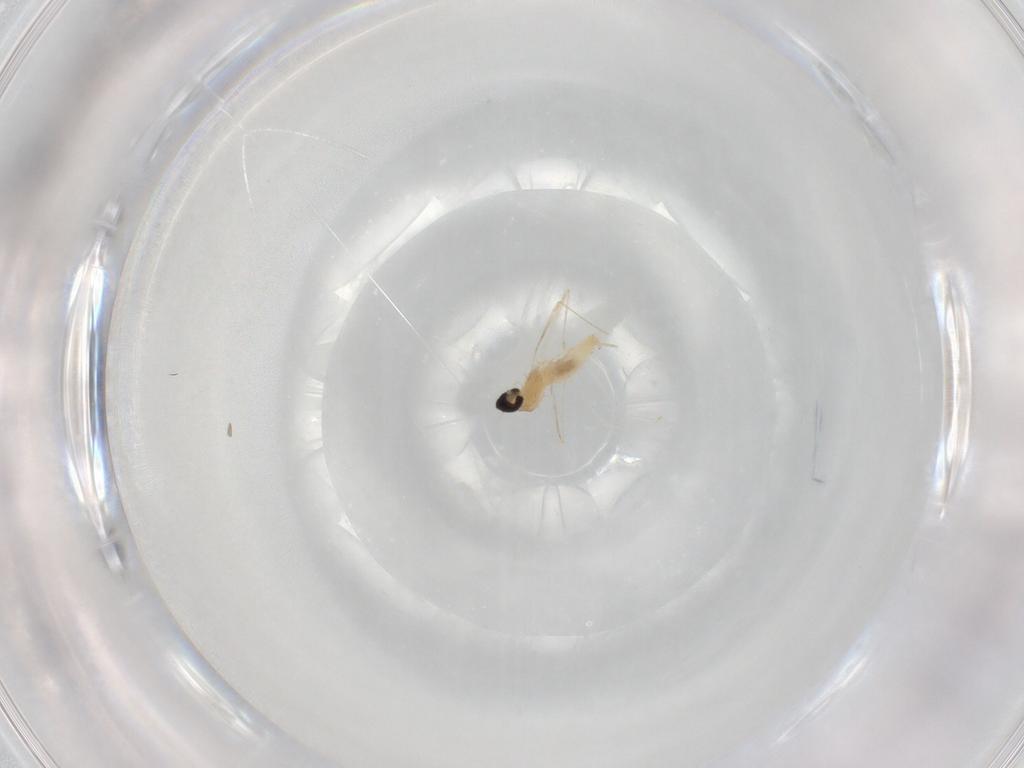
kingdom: Animalia
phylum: Arthropoda
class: Insecta
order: Diptera
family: Cecidomyiidae
